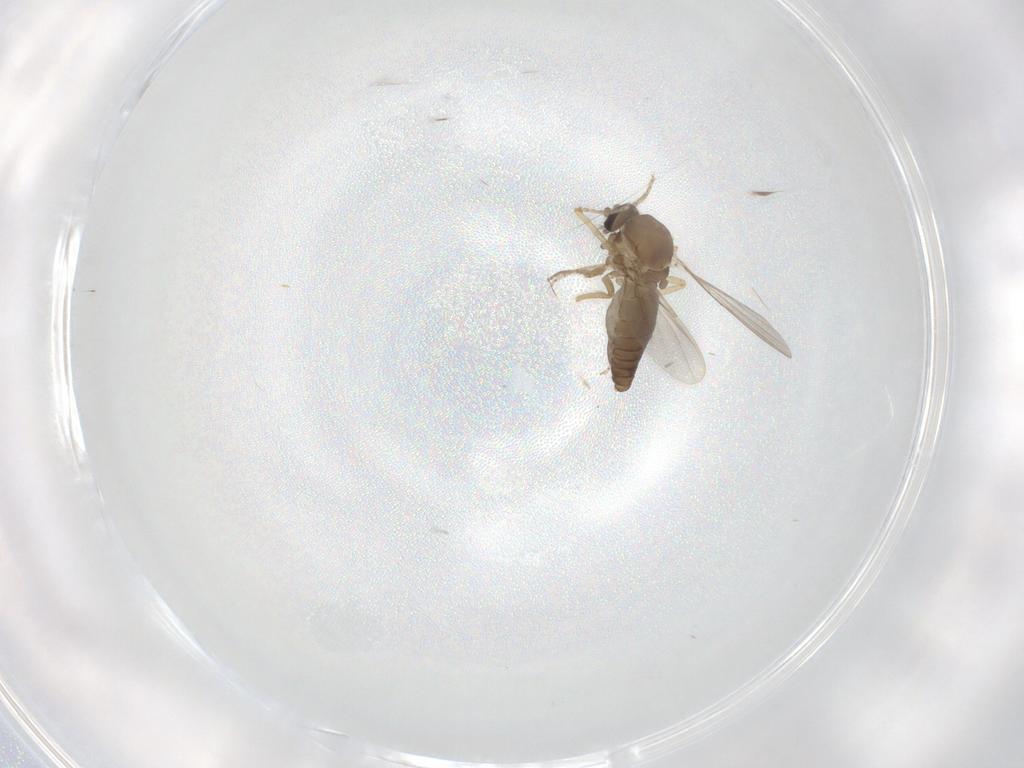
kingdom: Animalia
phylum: Arthropoda
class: Insecta
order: Diptera
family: Ceratopogonidae
